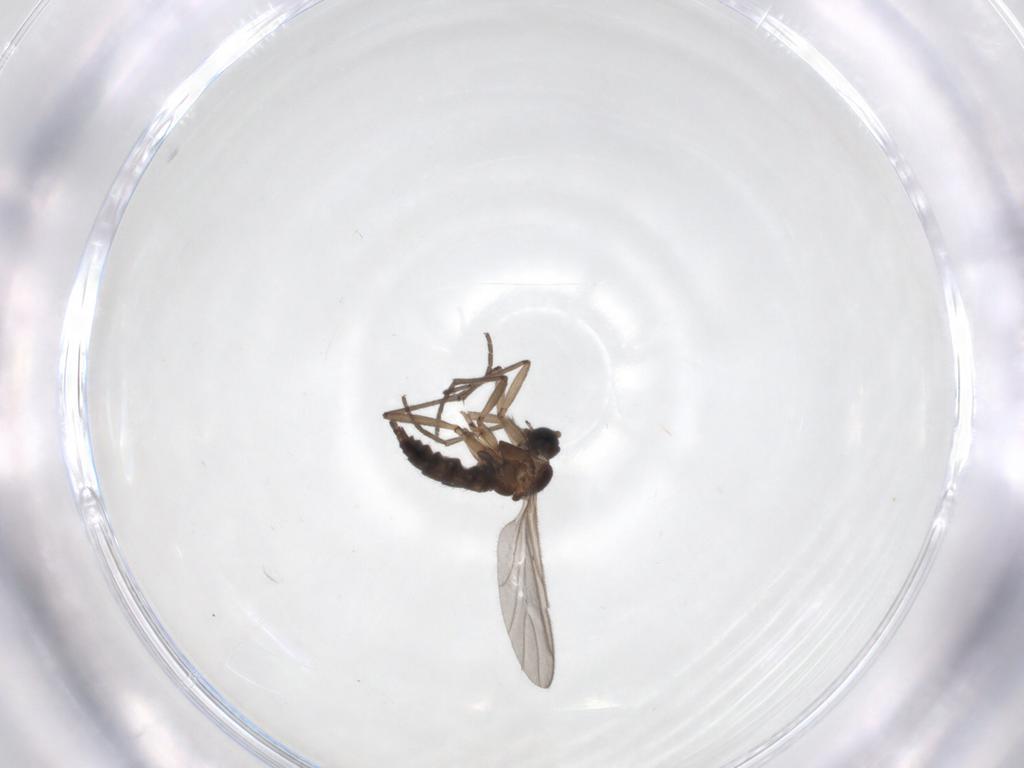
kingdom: Animalia
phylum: Arthropoda
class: Insecta
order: Diptera
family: Sciaridae
